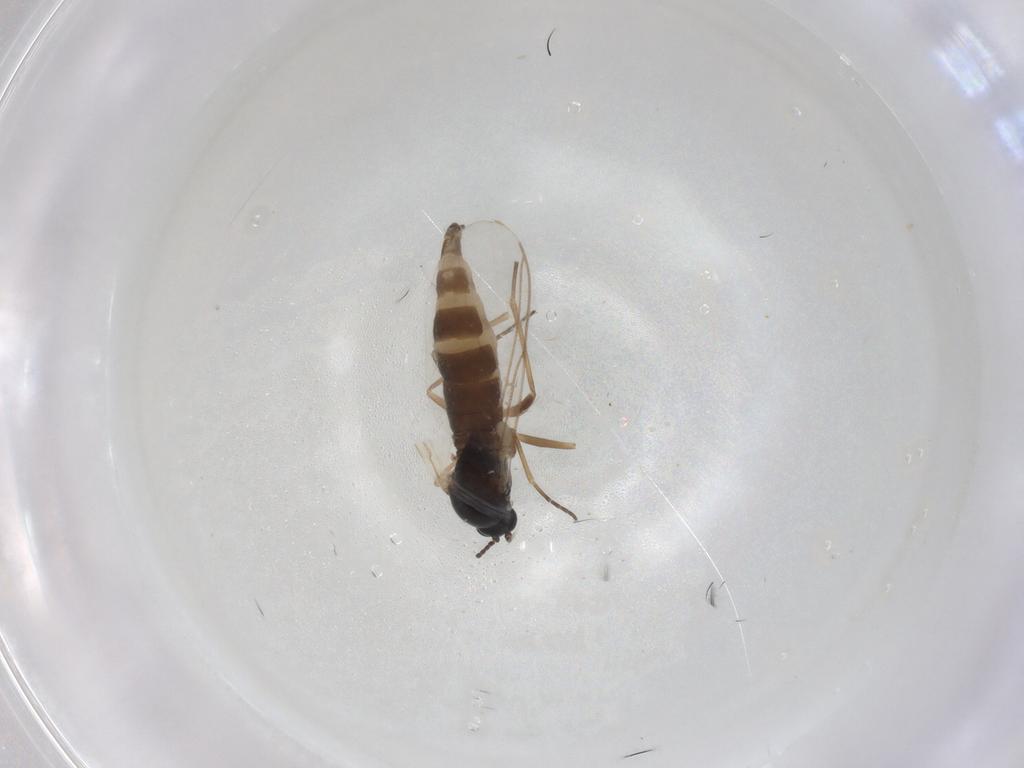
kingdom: Animalia
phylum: Arthropoda
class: Insecta
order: Diptera
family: Ceratopogonidae
